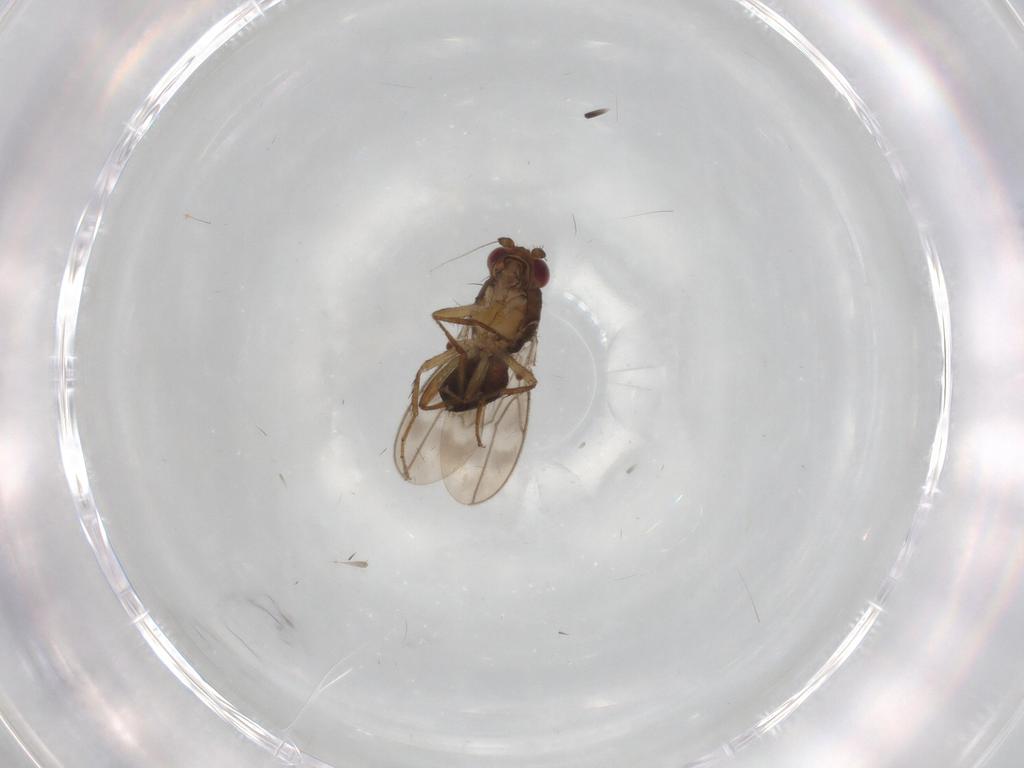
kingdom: Animalia
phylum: Arthropoda
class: Insecta
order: Diptera
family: Sphaeroceridae
